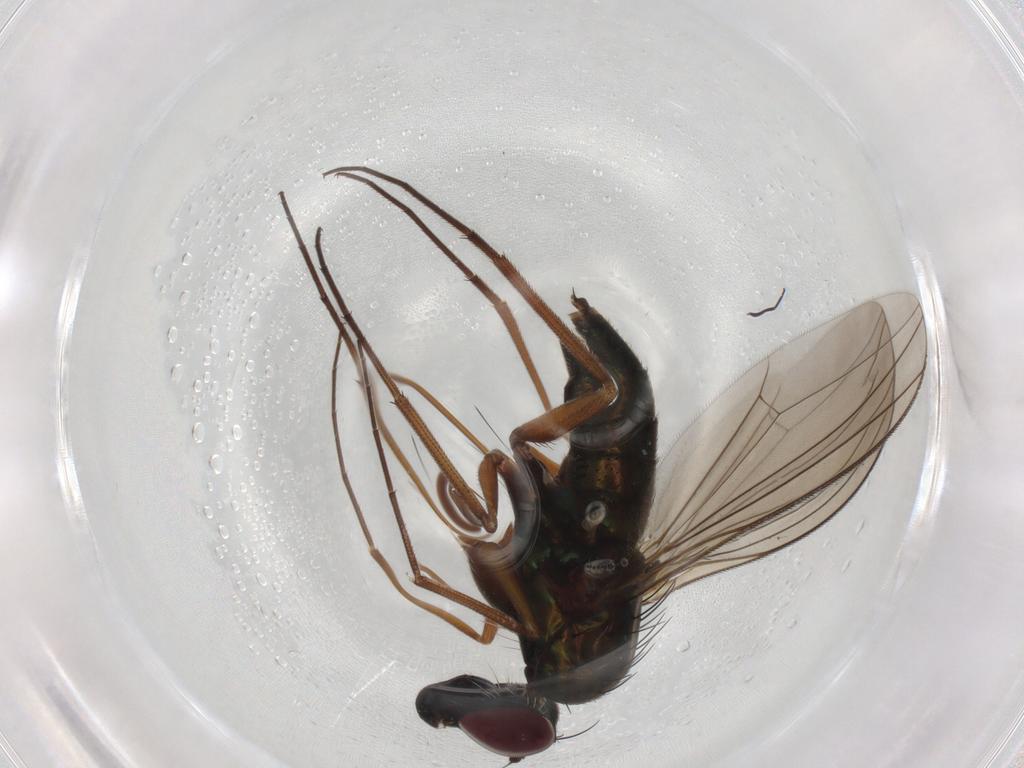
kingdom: Animalia
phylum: Arthropoda
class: Insecta
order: Diptera
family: Dolichopodidae
